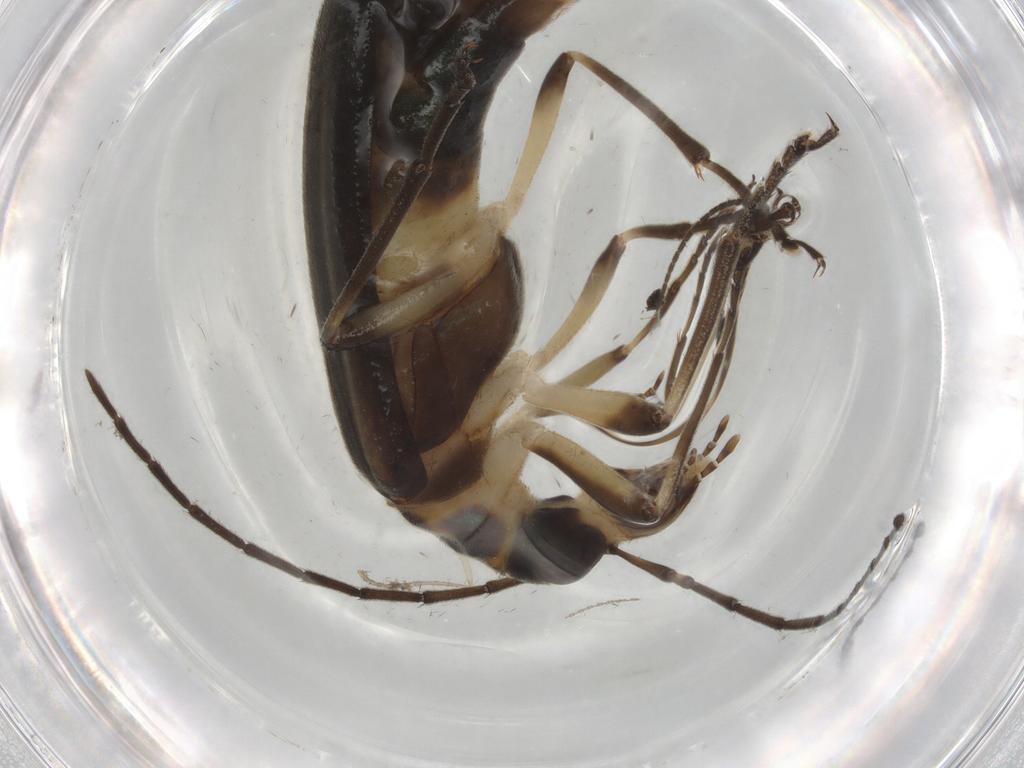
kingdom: Animalia
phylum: Arthropoda
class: Insecta
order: Coleoptera
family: Oedemeridae
